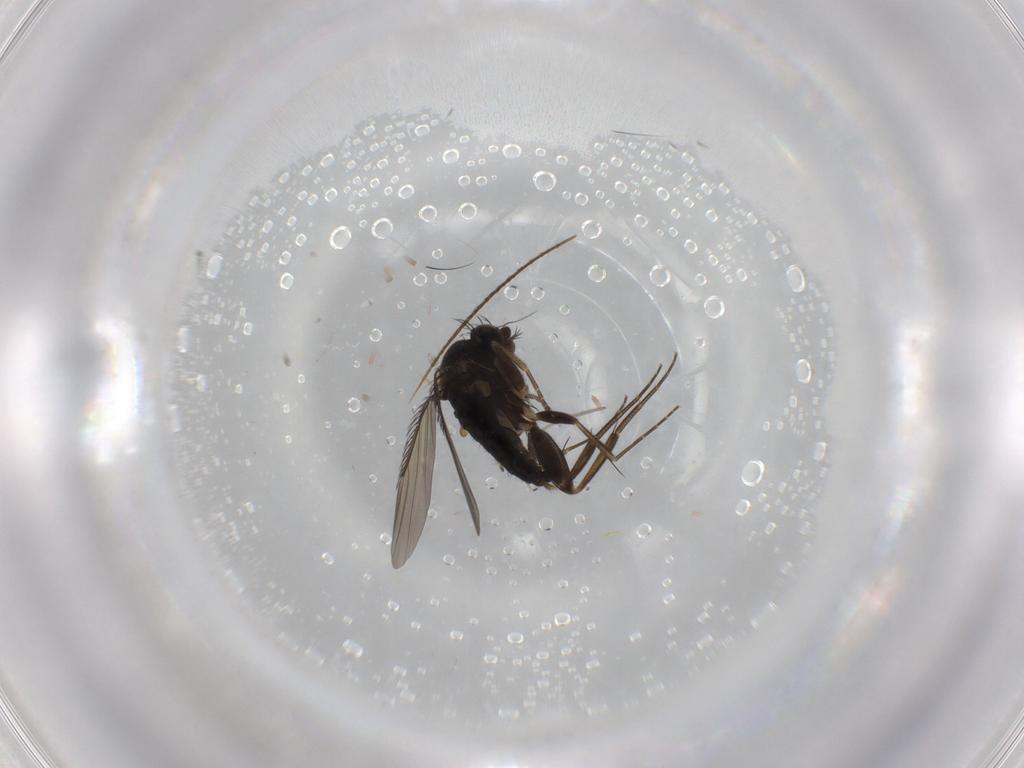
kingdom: Animalia
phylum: Arthropoda
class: Insecta
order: Diptera
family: Phoridae
